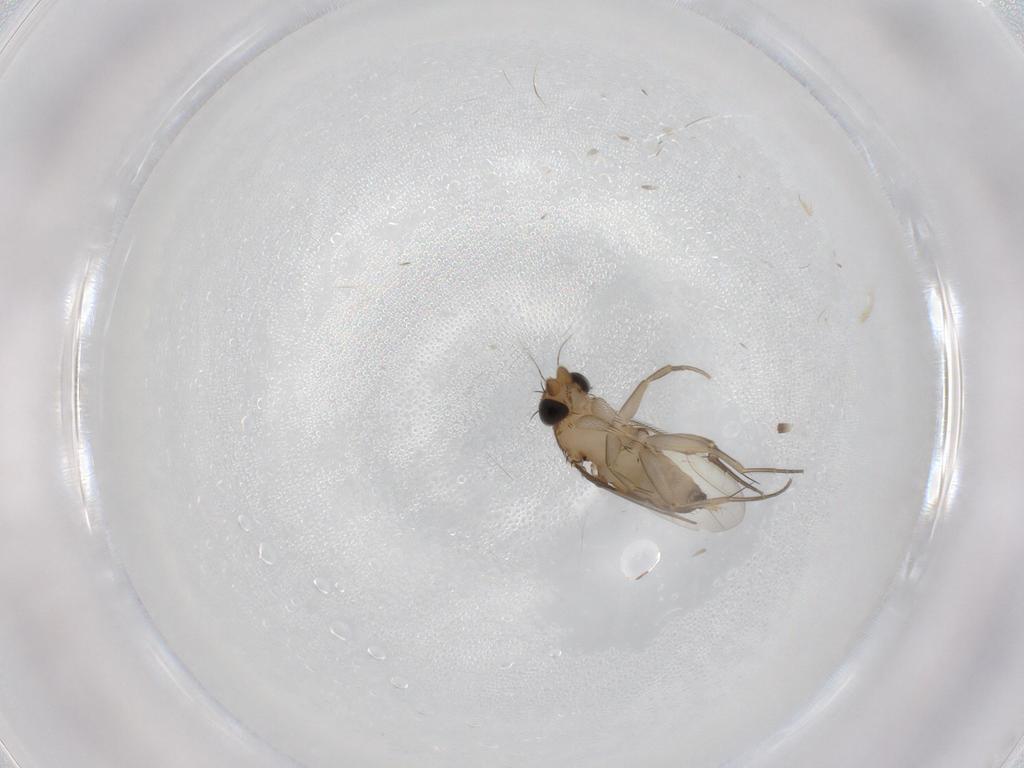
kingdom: Animalia
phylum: Arthropoda
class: Insecta
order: Diptera
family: Phoridae
